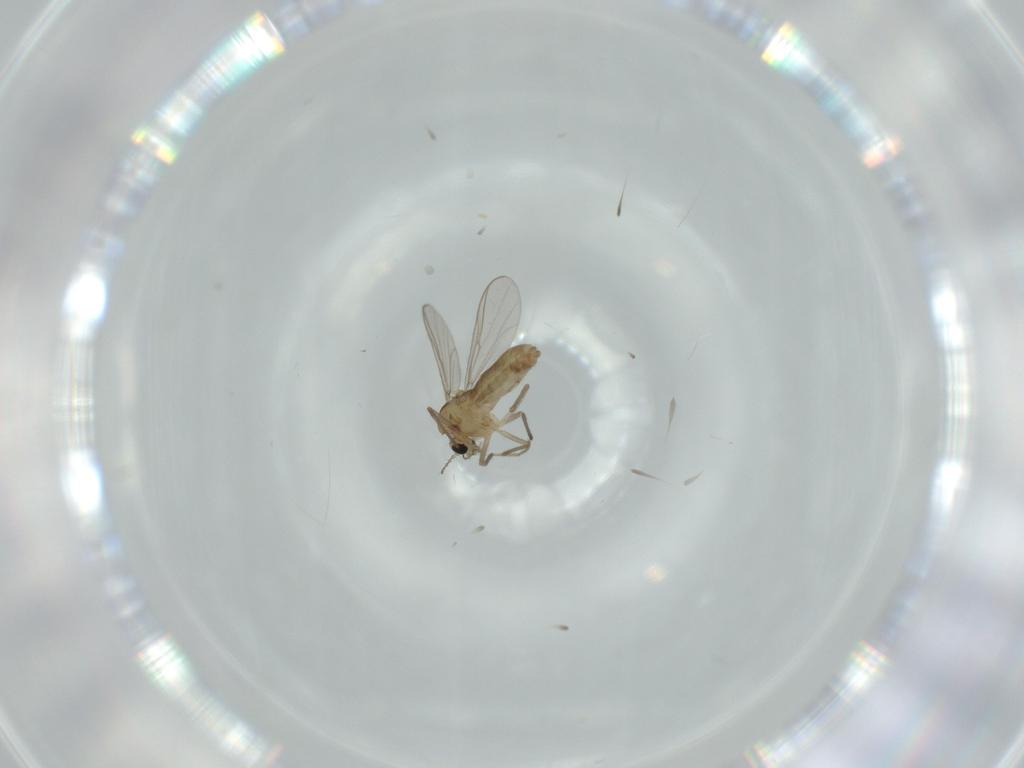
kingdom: Animalia
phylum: Arthropoda
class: Insecta
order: Diptera
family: Chironomidae
